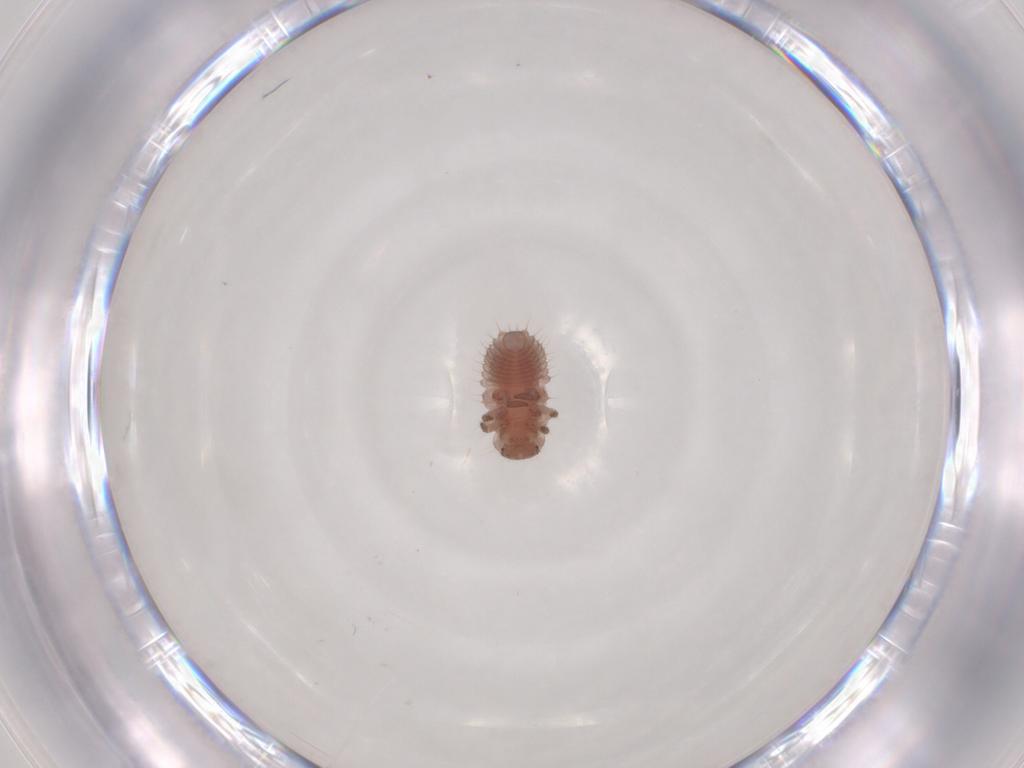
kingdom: Animalia
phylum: Arthropoda
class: Insecta
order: Coleoptera
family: Coccinellidae
